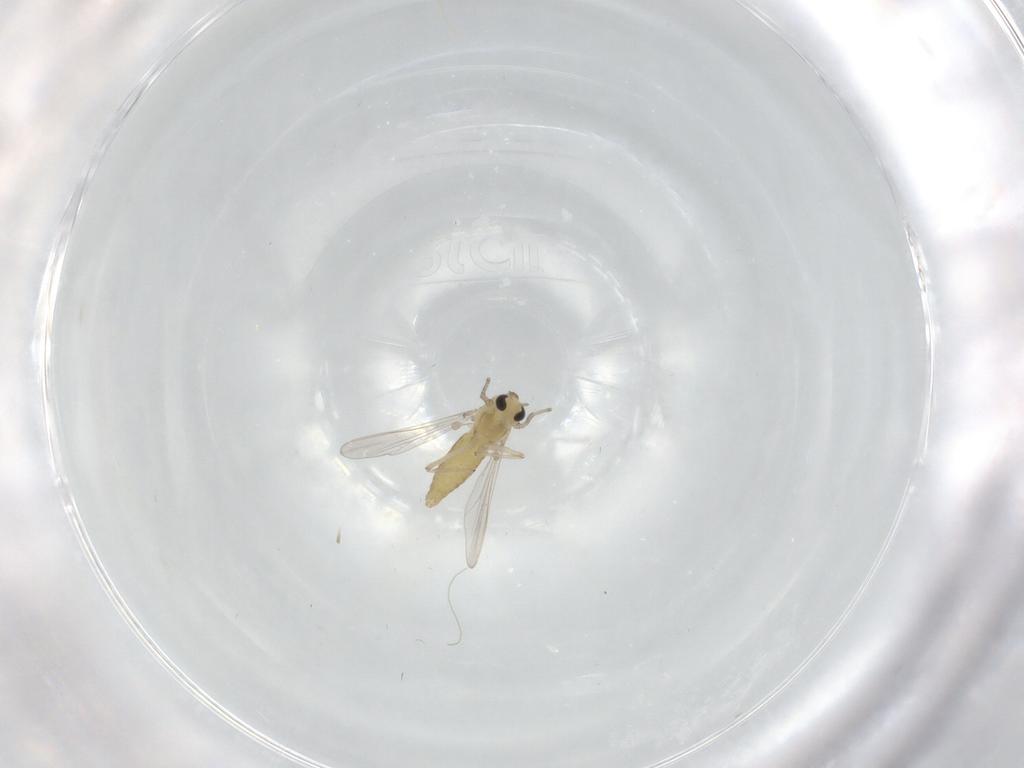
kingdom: Animalia
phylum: Arthropoda
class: Insecta
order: Diptera
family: Chironomidae
